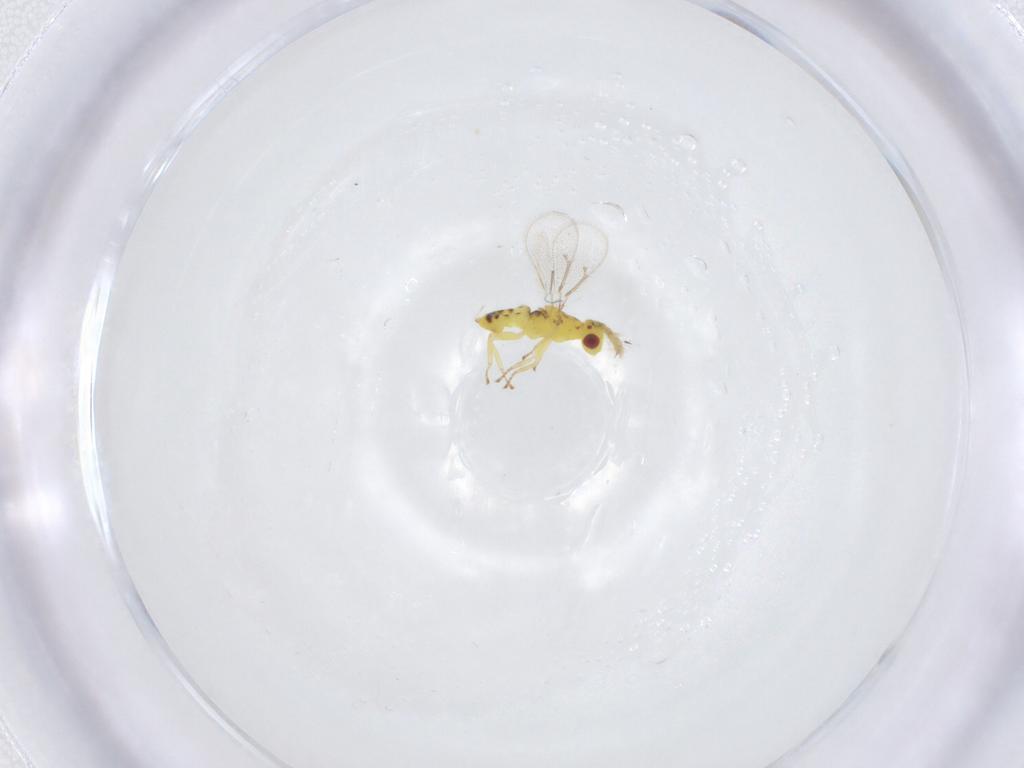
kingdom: Animalia
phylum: Arthropoda
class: Insecta
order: Hymenoptera
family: Eulophidae
